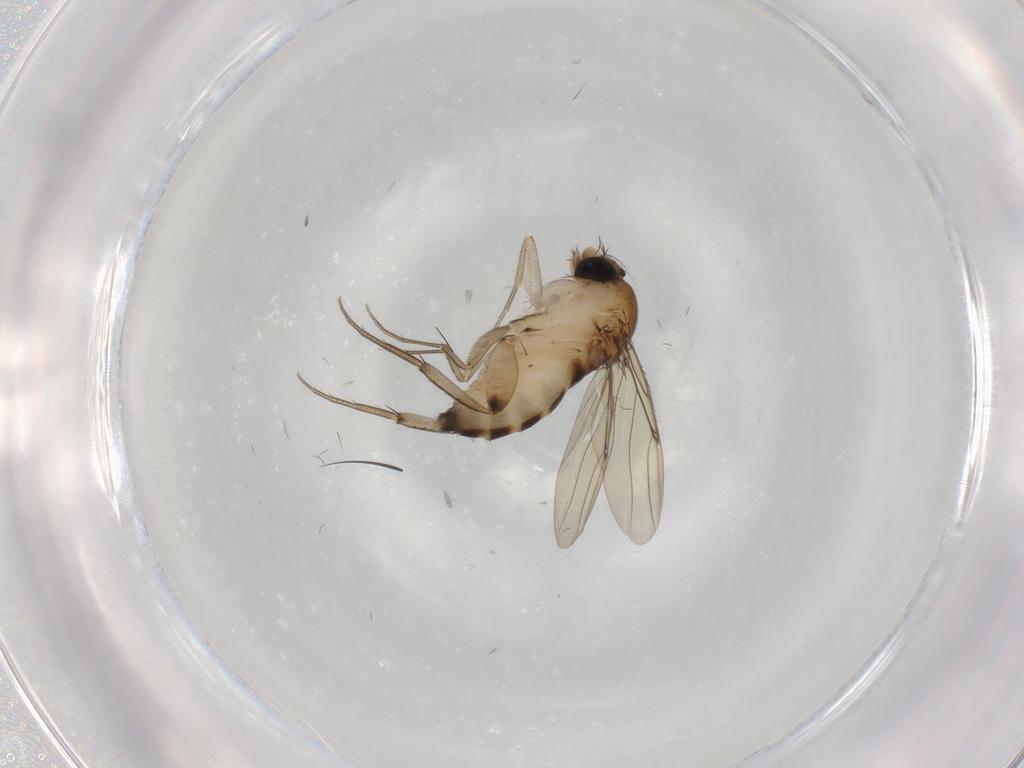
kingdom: Animalia
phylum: Arthropoda
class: Insecta
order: Diptera
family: Phoridae
